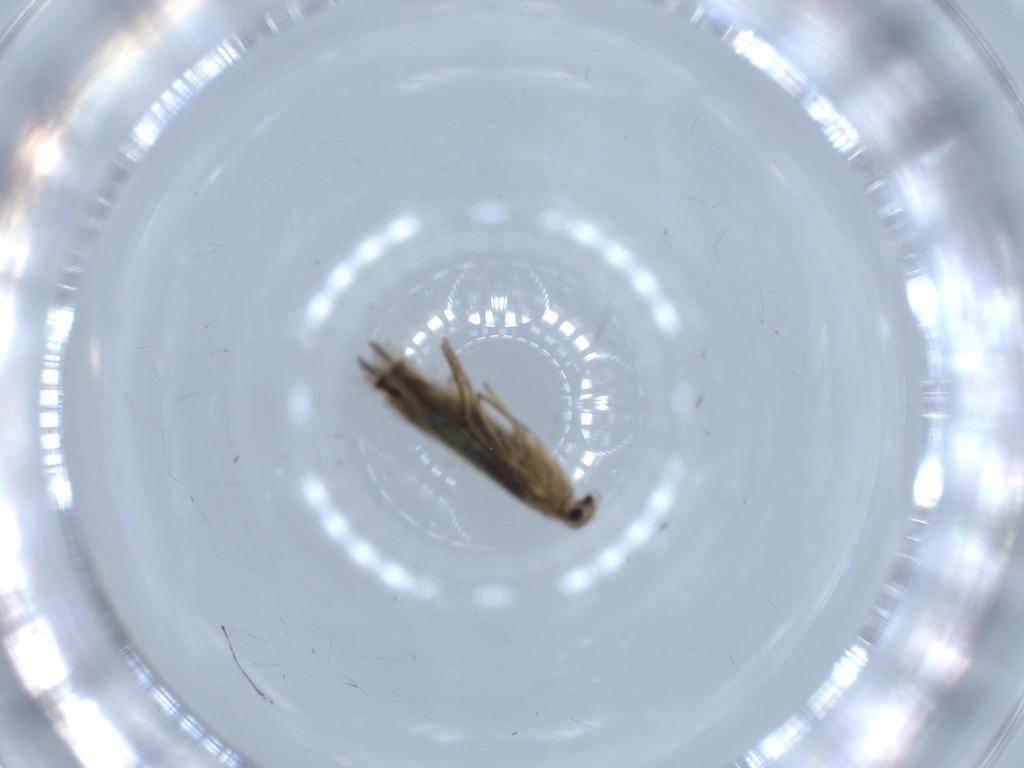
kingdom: Animalia
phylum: Arthropoda
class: Insecta
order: Lepidoptera
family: Heliozelidae
